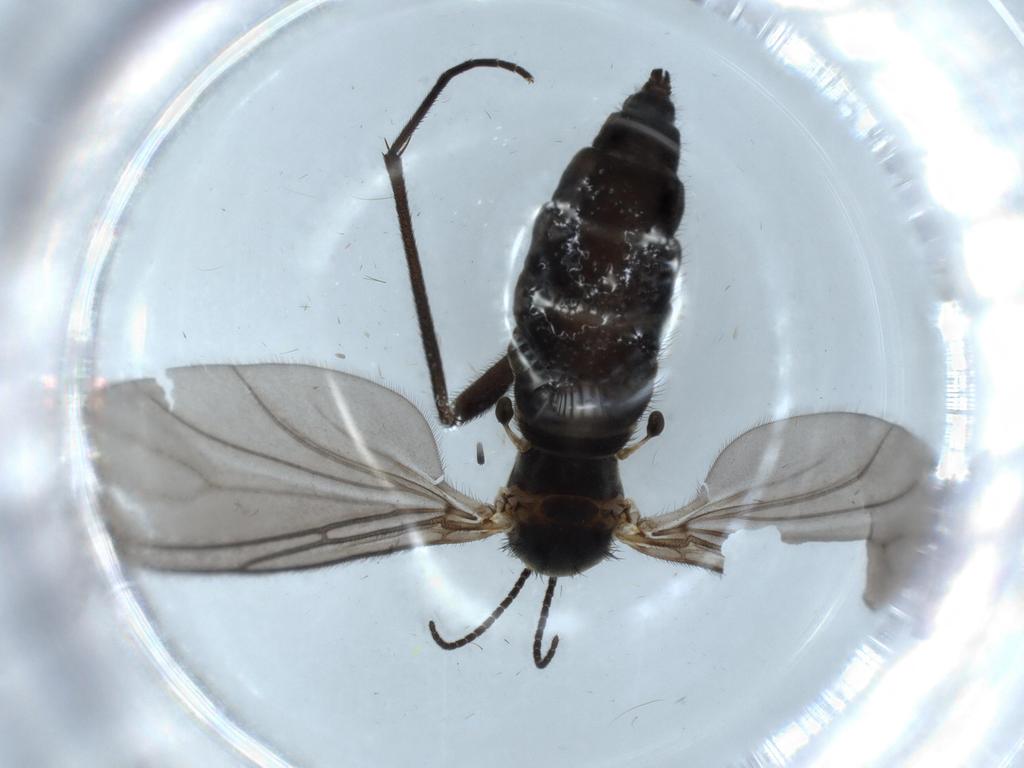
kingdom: Animalia
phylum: Arthropoda
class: Insecta
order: Diptera
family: Sciaridae
